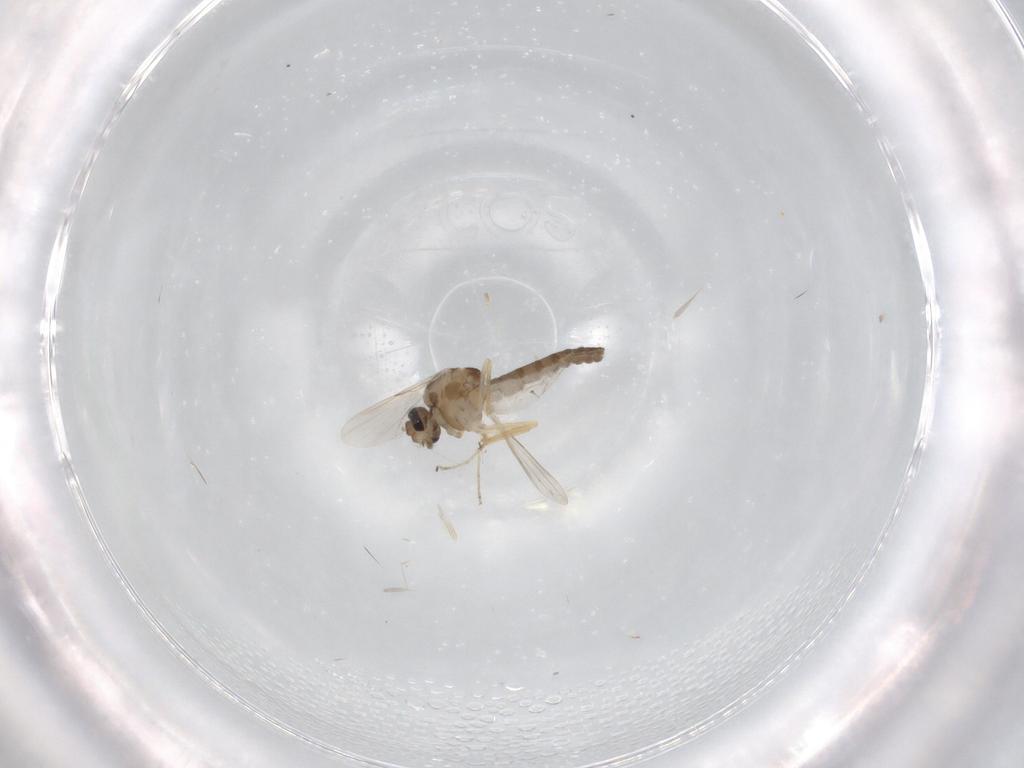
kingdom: Animalia
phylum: Arthropoda
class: Insecta
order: Diptera
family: Ceratopogonidae
